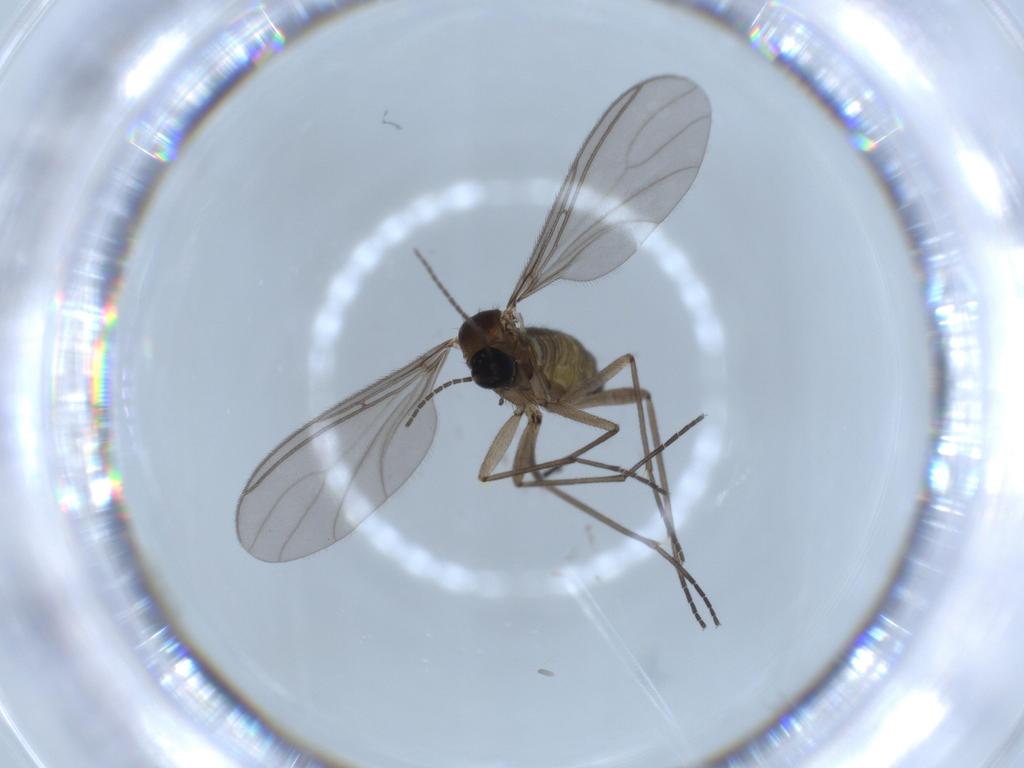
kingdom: Animalia
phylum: Arthropoda
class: Insecta
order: Diptera
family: Sciaridae
